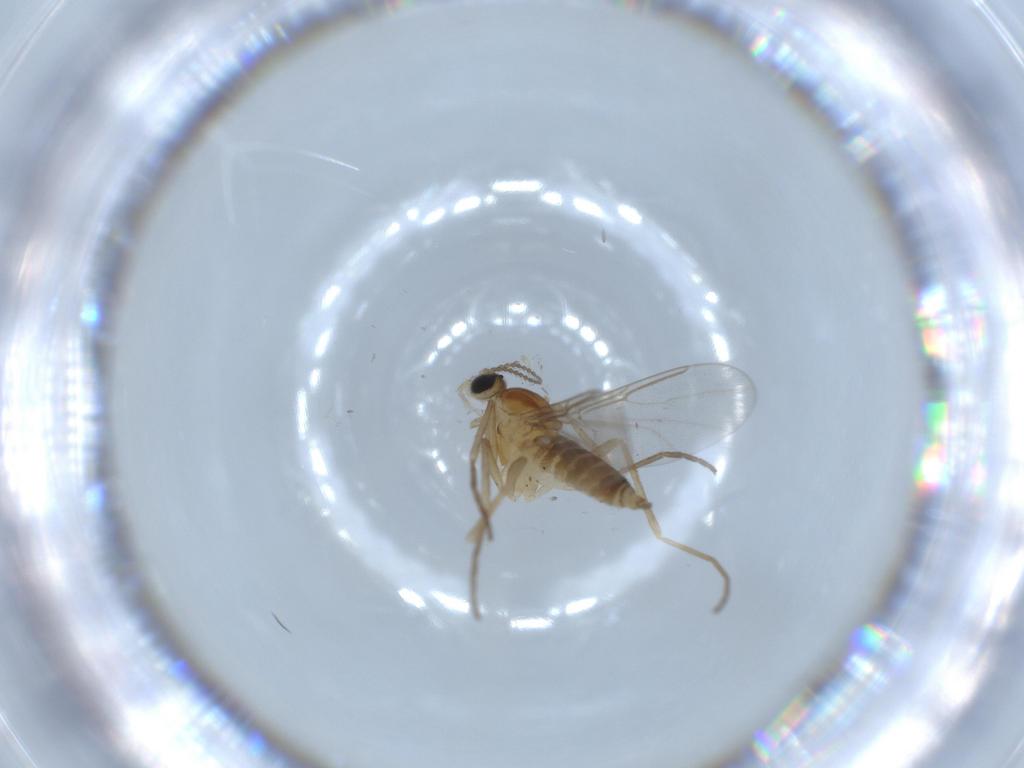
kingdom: Animalia
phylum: Arthropoda
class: Insecta
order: Diptera
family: Cecidomyiidae
